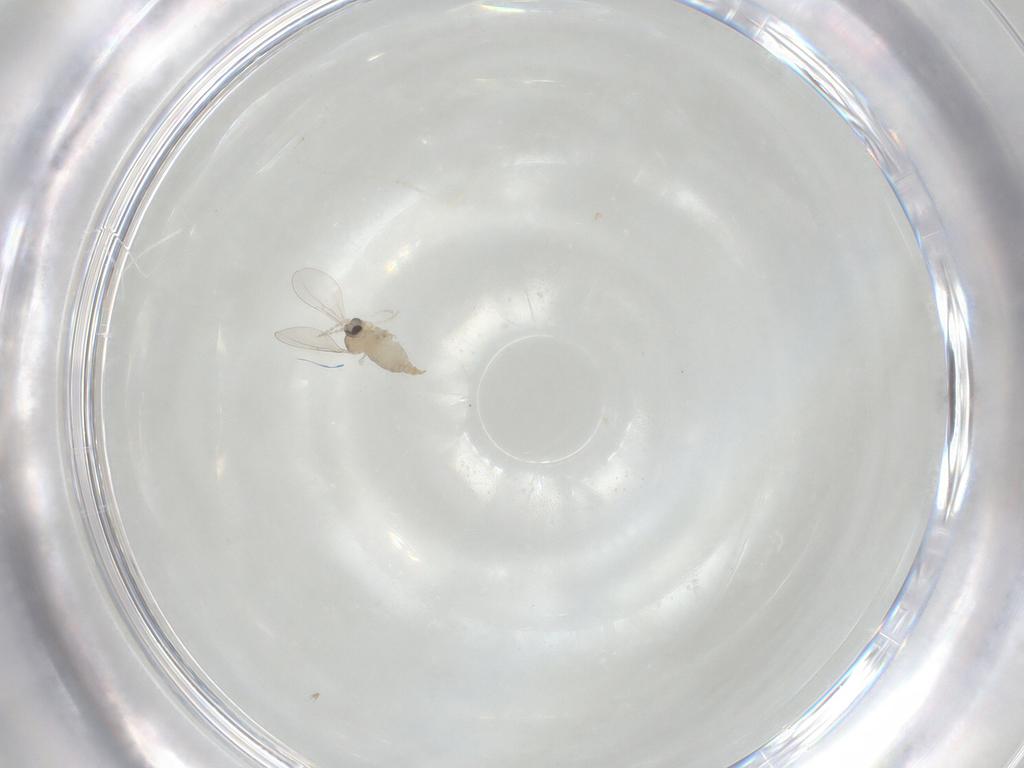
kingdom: Animalia
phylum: Arthropoda
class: Insecta
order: Diptera
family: Cecidomyiidae
